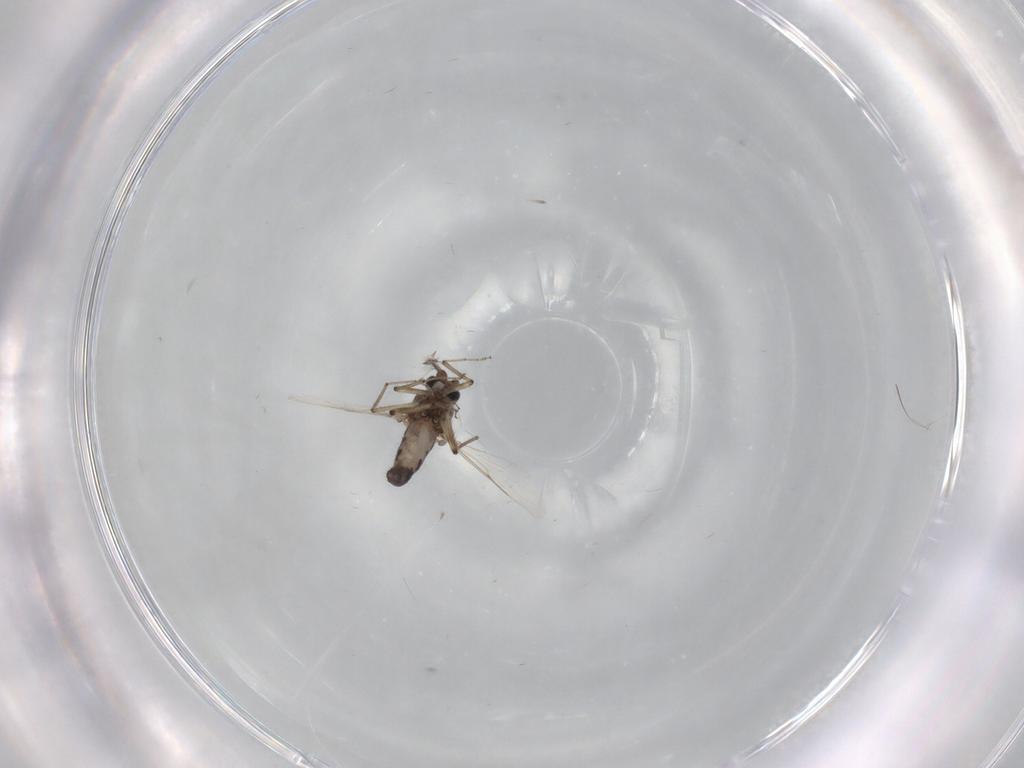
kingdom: Animalia
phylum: Arthropoda
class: Insecta
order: Diptera
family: Ceratopogonidae
